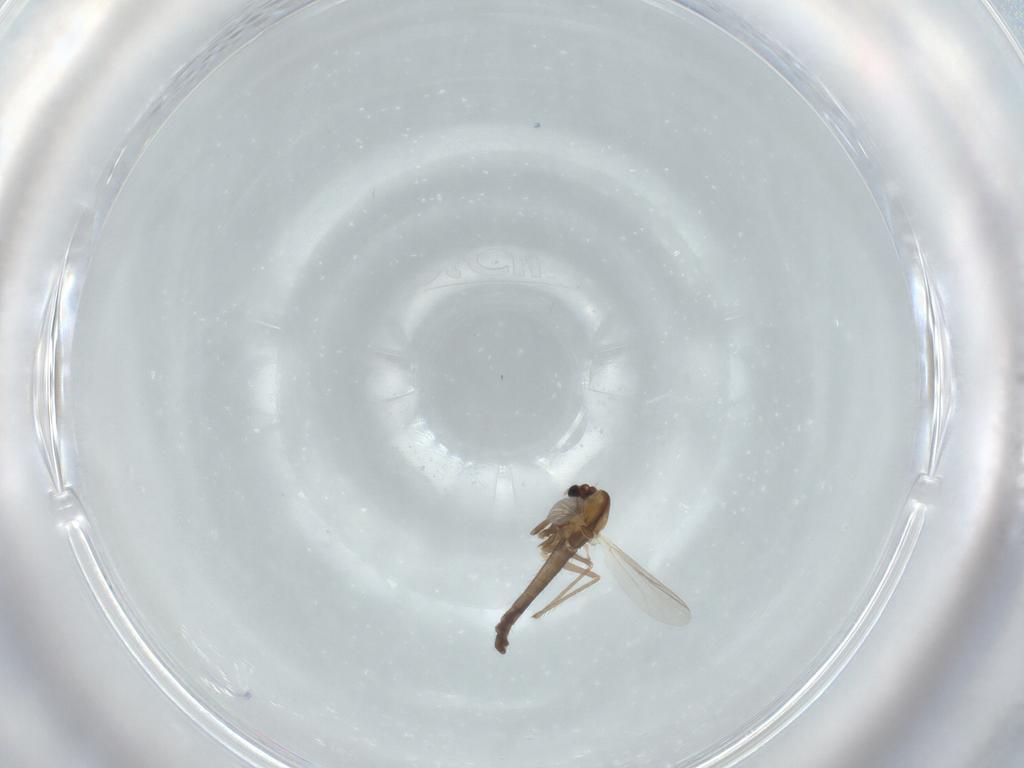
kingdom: Animalia
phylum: Arthropoda
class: Insecta
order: Diptera
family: Chironomidae
